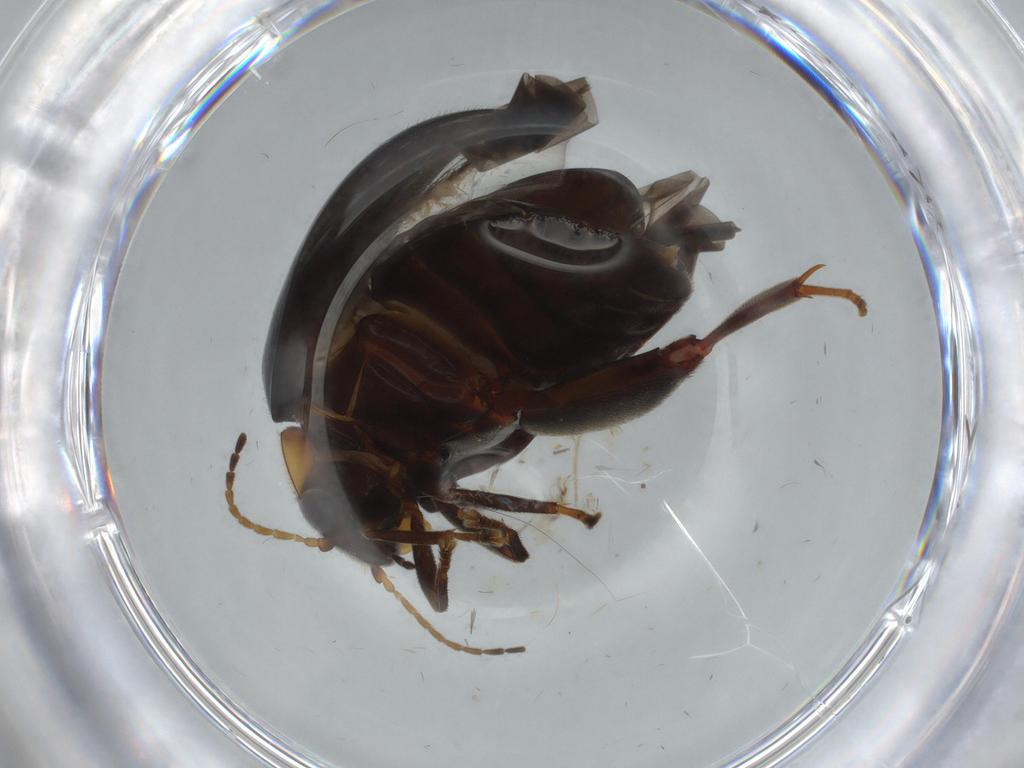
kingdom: Animalia
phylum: Arthropoda
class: Insecta
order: Coleoptera
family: Scirtidae
